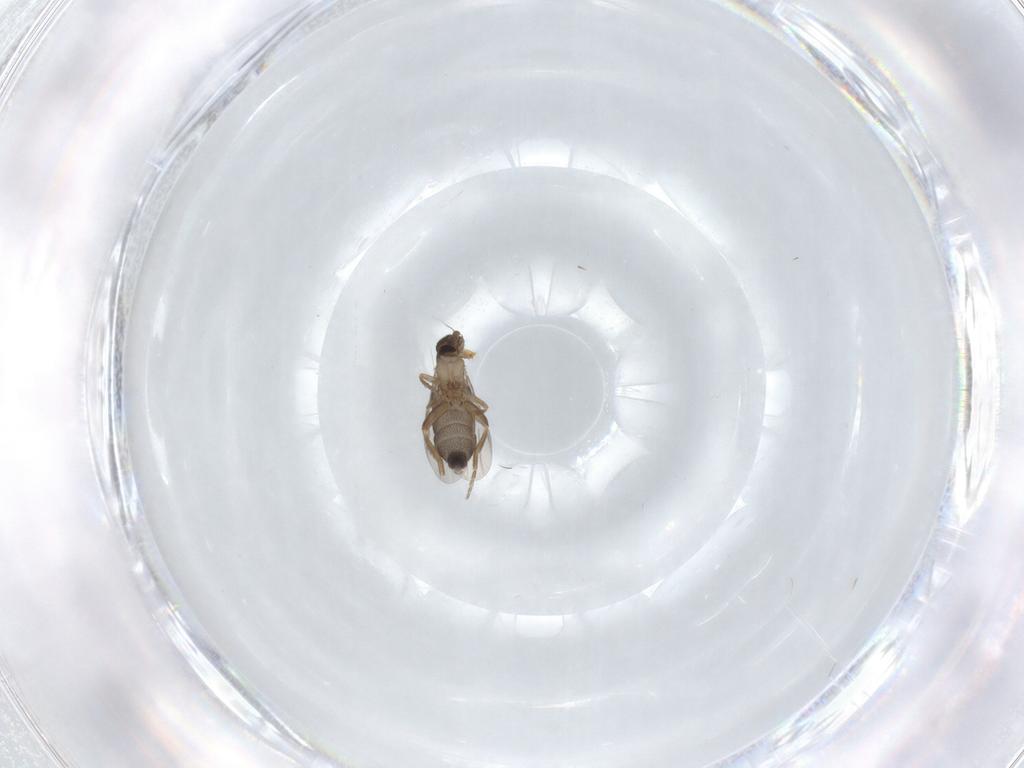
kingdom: Animalia
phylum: Arthropoda
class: Insecta
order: Diptera
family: Phoridae
